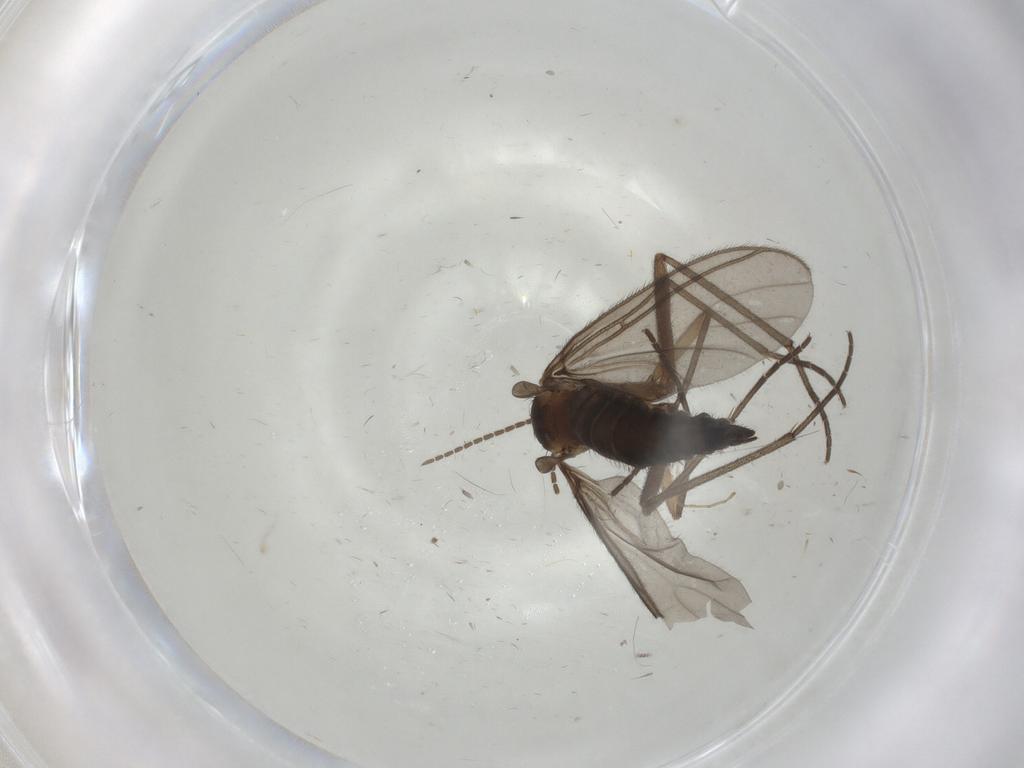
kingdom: Animalia
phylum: Arthropoda
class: Insecta
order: Diptera
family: Sciaridae
